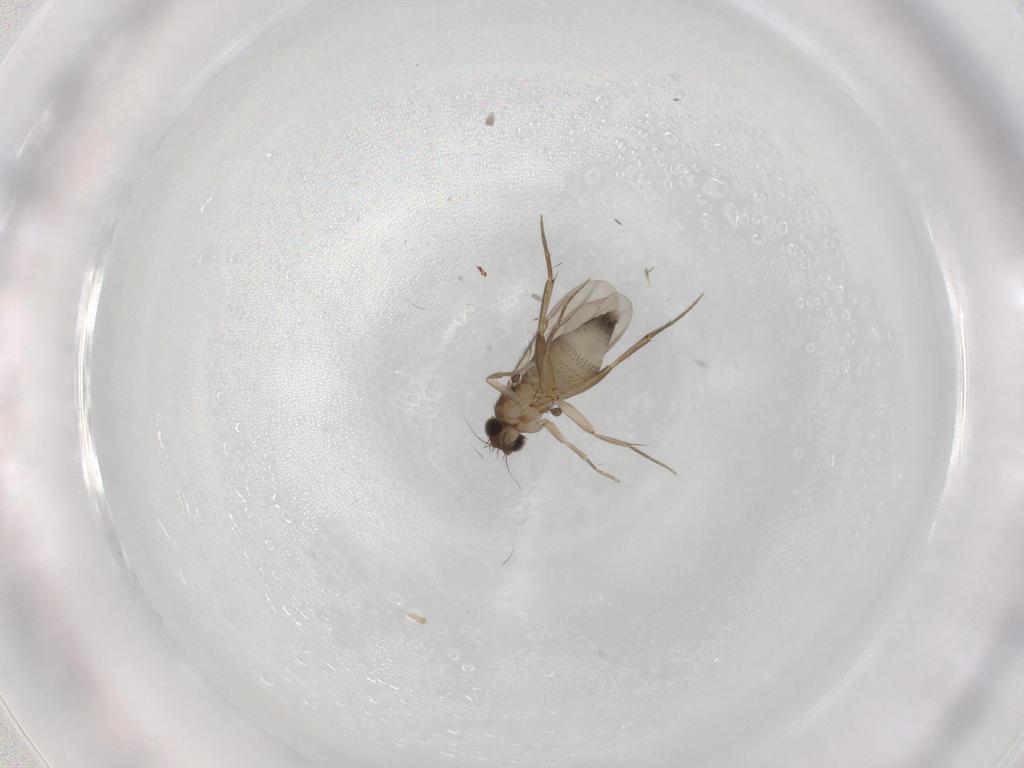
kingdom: Animalia
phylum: Arthropoda
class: Insecta
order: Diptera
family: Phoridae
